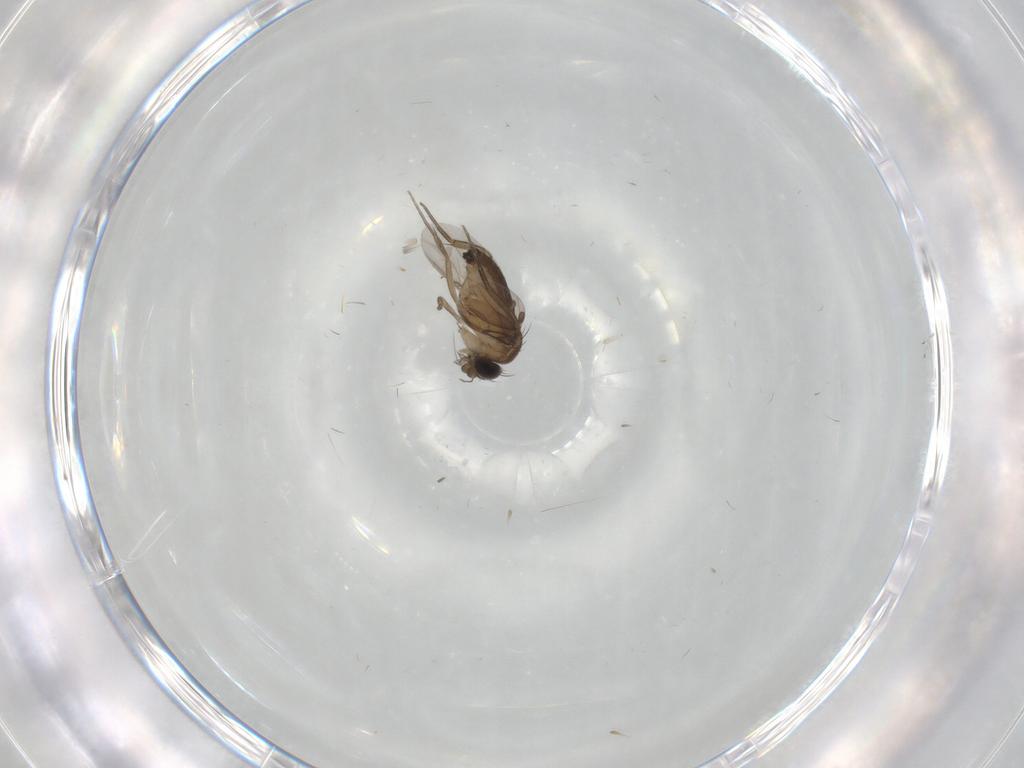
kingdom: Animalia
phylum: Arthropoda
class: Insecta
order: Diptera
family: Phoridae
